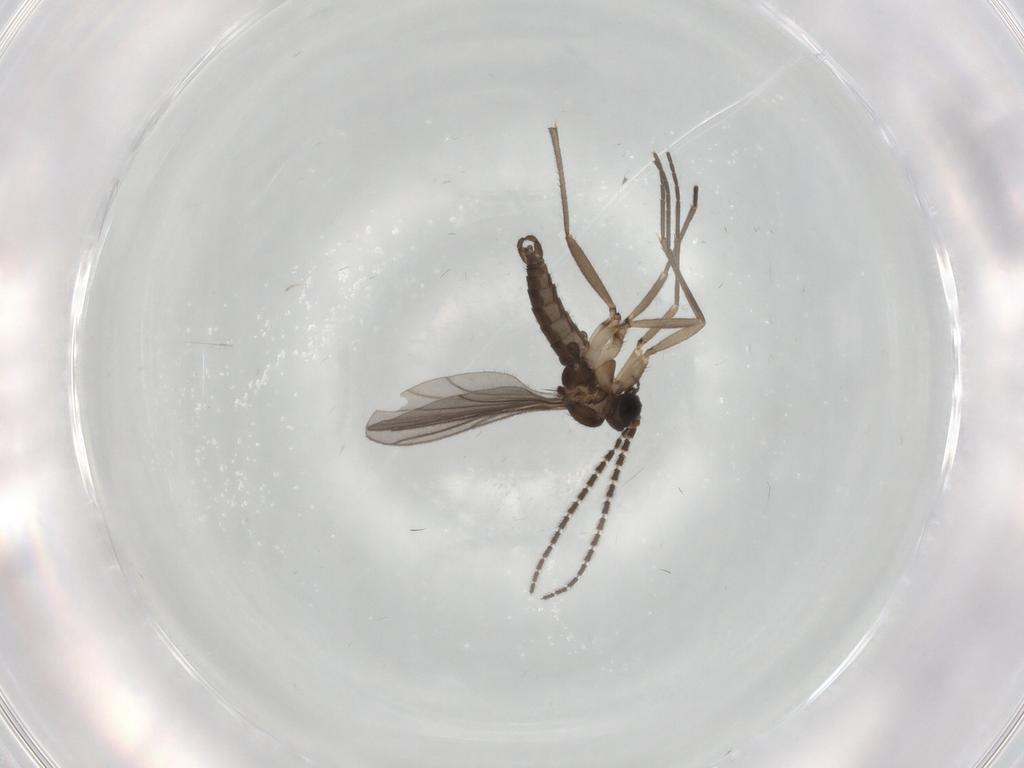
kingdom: Animalia
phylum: Arthropoda
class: Insecta
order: Diptera
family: Sciaridae
